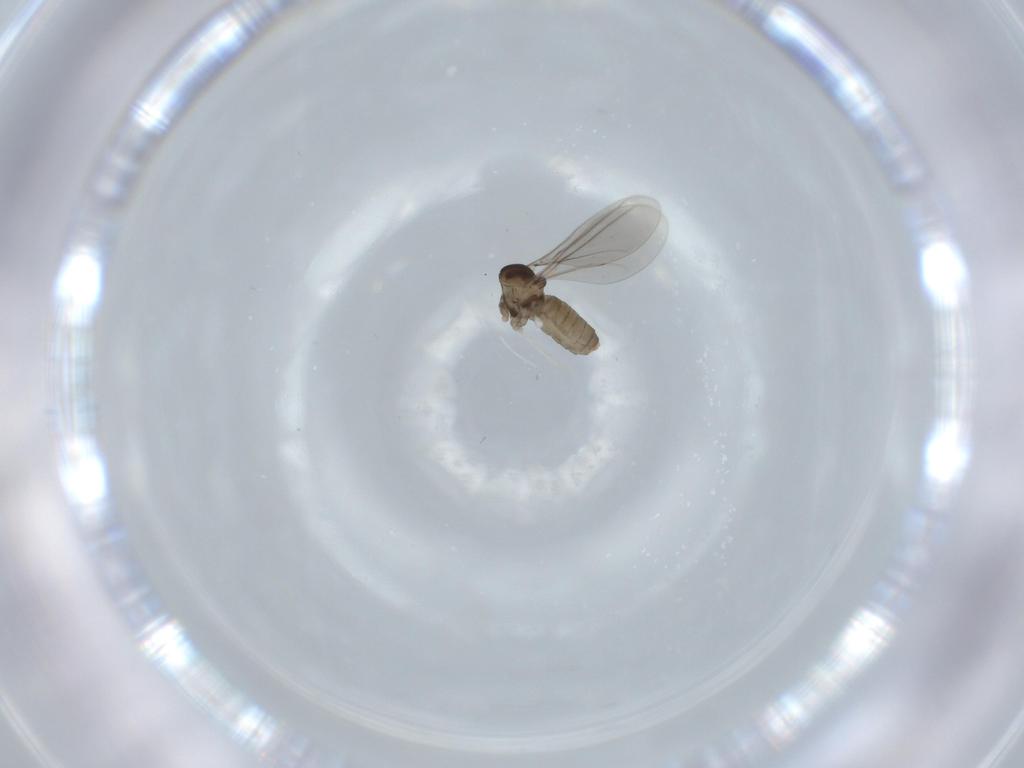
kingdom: Animalia
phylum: Arthropoda
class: Insecta
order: Diptera
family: Cecidomyiidae
